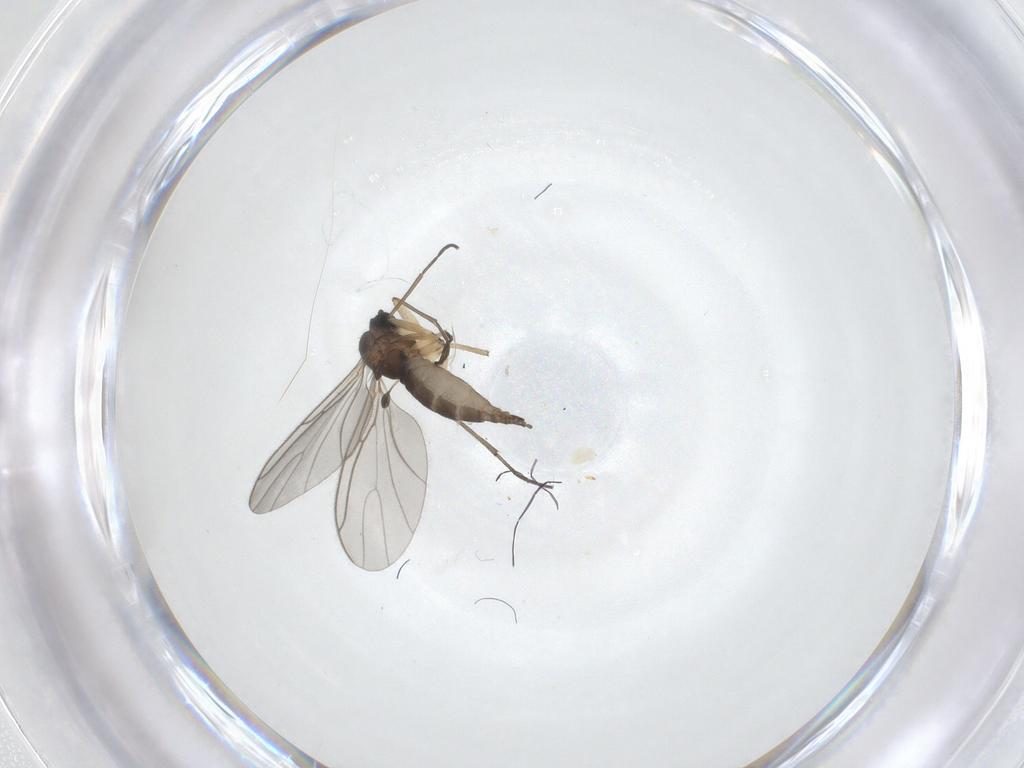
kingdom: Animalia
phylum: Arthropoda
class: Insecta
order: Diptera
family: Sciaridae
